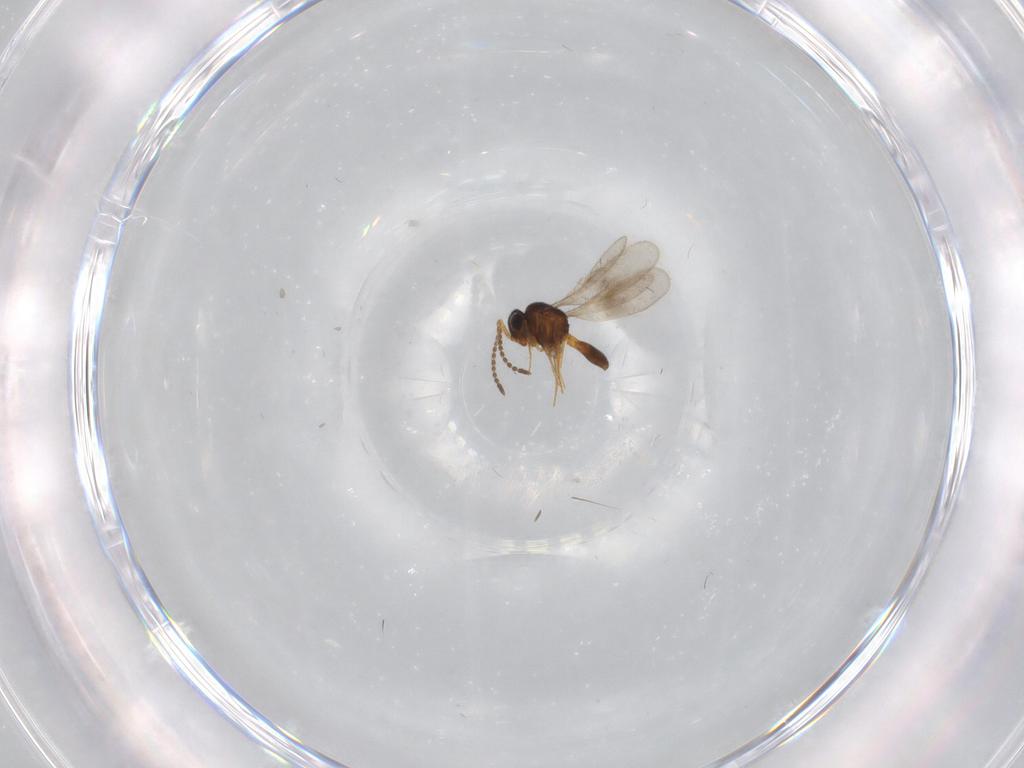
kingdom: Animalia
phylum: Arthropoda
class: Insecta
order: Hymenoptera
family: Scelionidae
